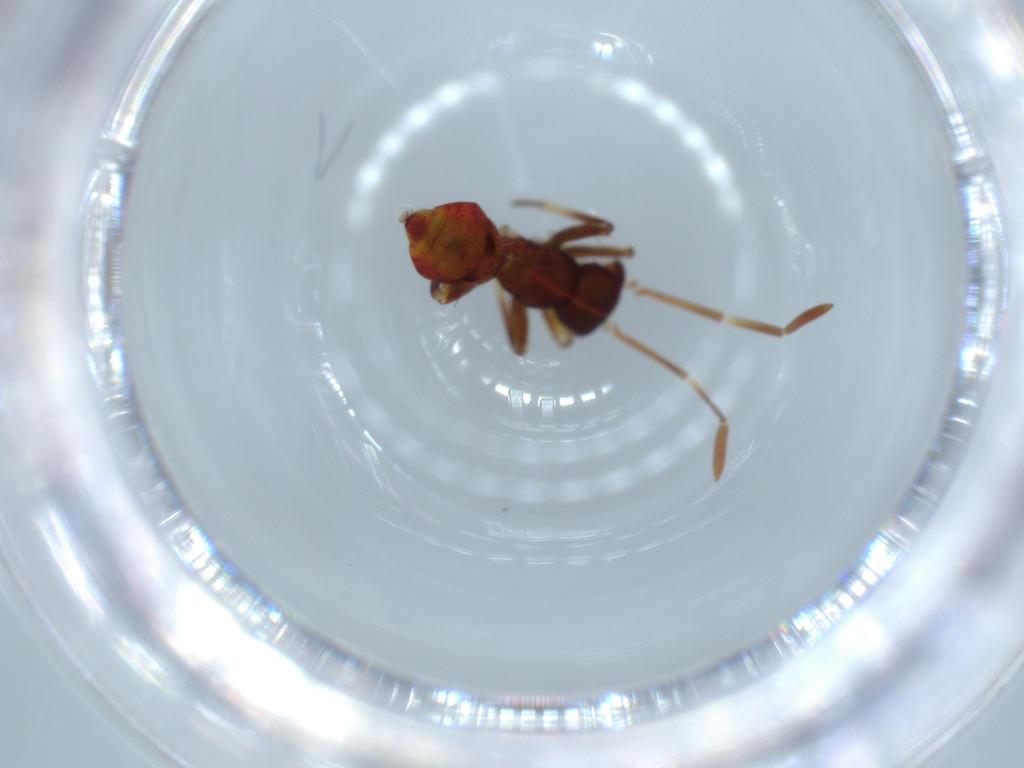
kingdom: Animalia
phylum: Arthropoda
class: Insecta
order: Hemiptera
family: Miridae
